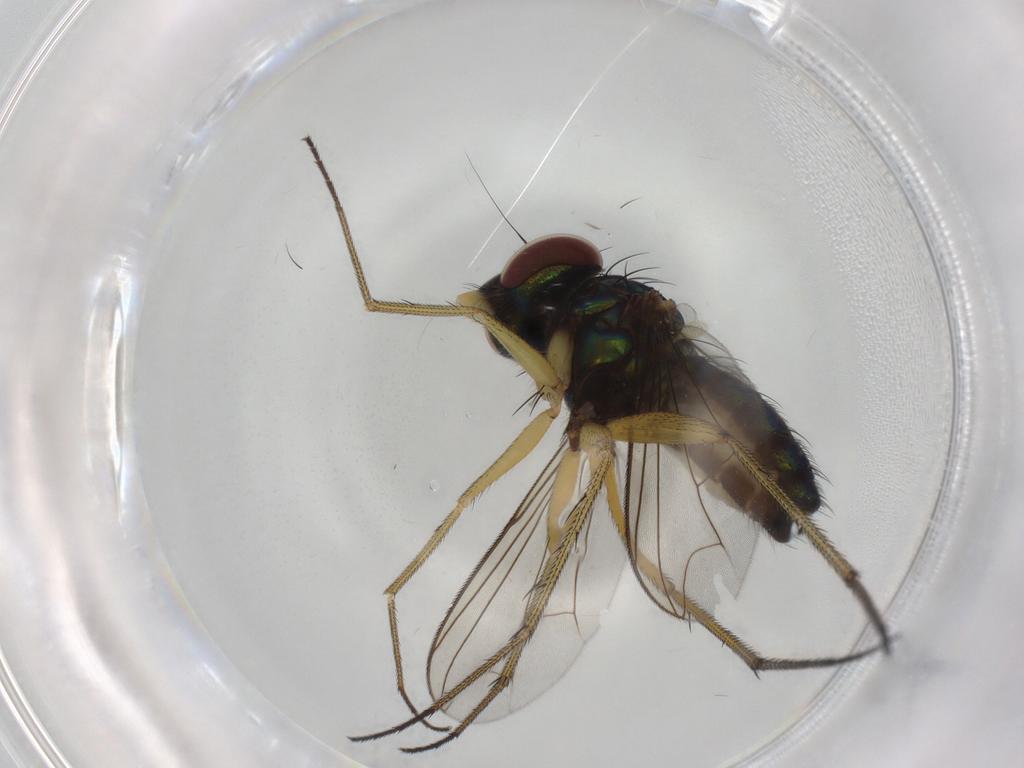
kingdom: Animalia
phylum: Arthropoda
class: Insecta
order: Diptera
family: Dolichopodidae
